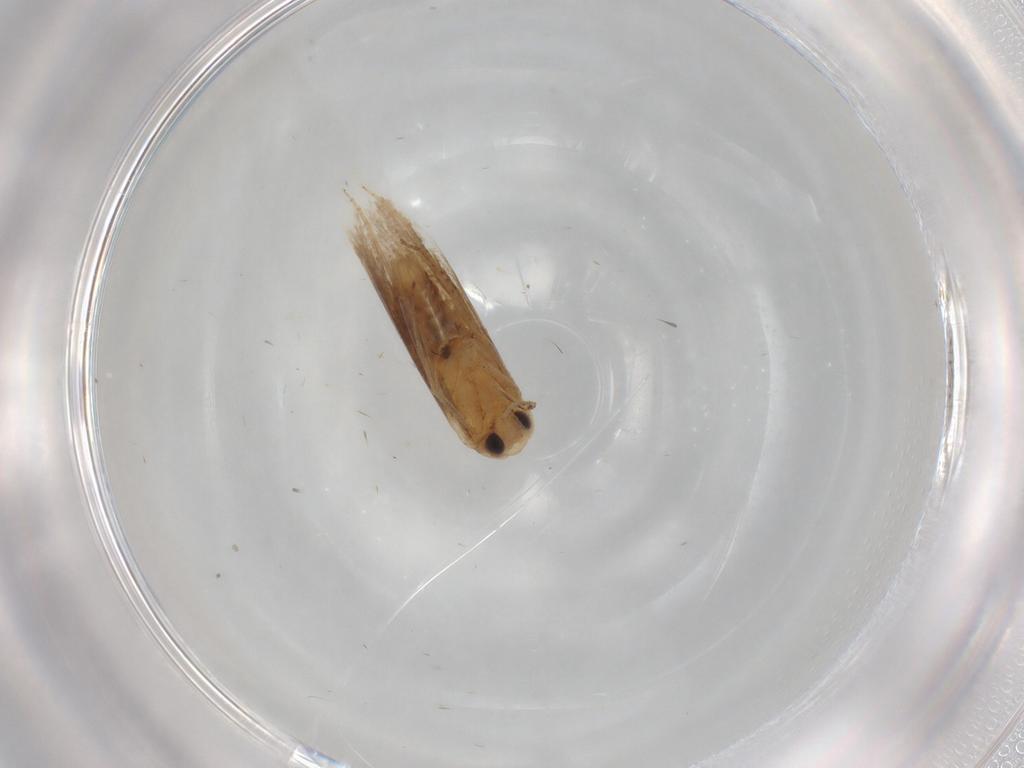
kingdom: Animalia
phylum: Arthropoda
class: Insecta
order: Lepidoptera
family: Nepticulidae
